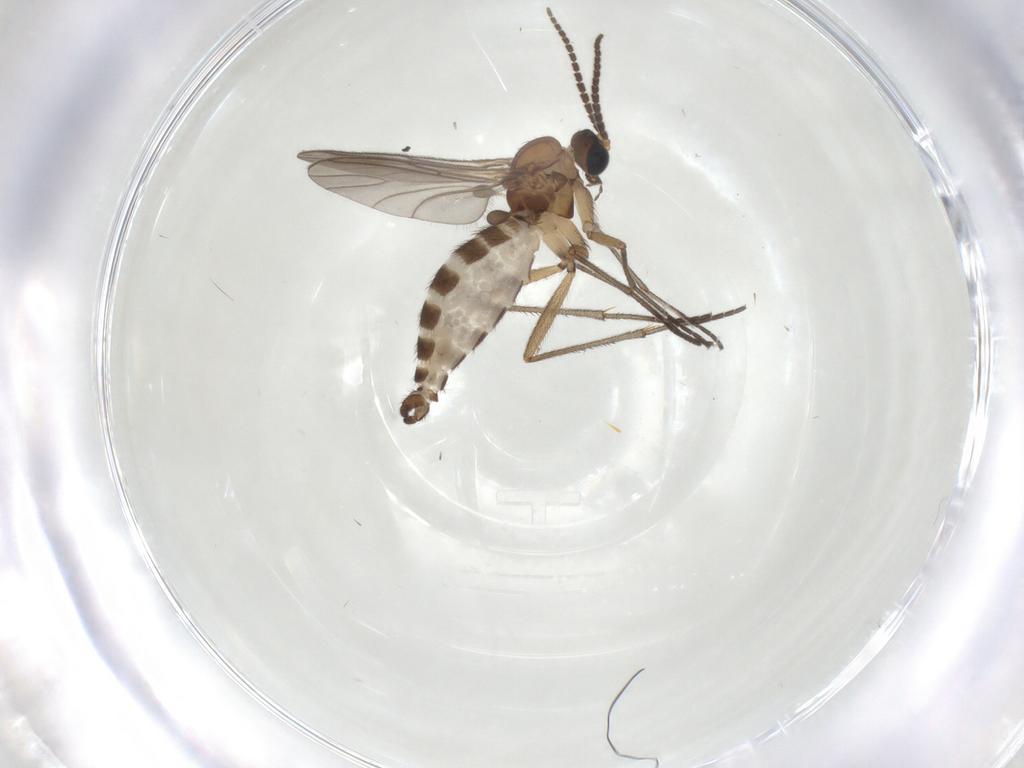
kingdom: Animalia
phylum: Arthropoda
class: Insecta
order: Diptera
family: Sciaridae
